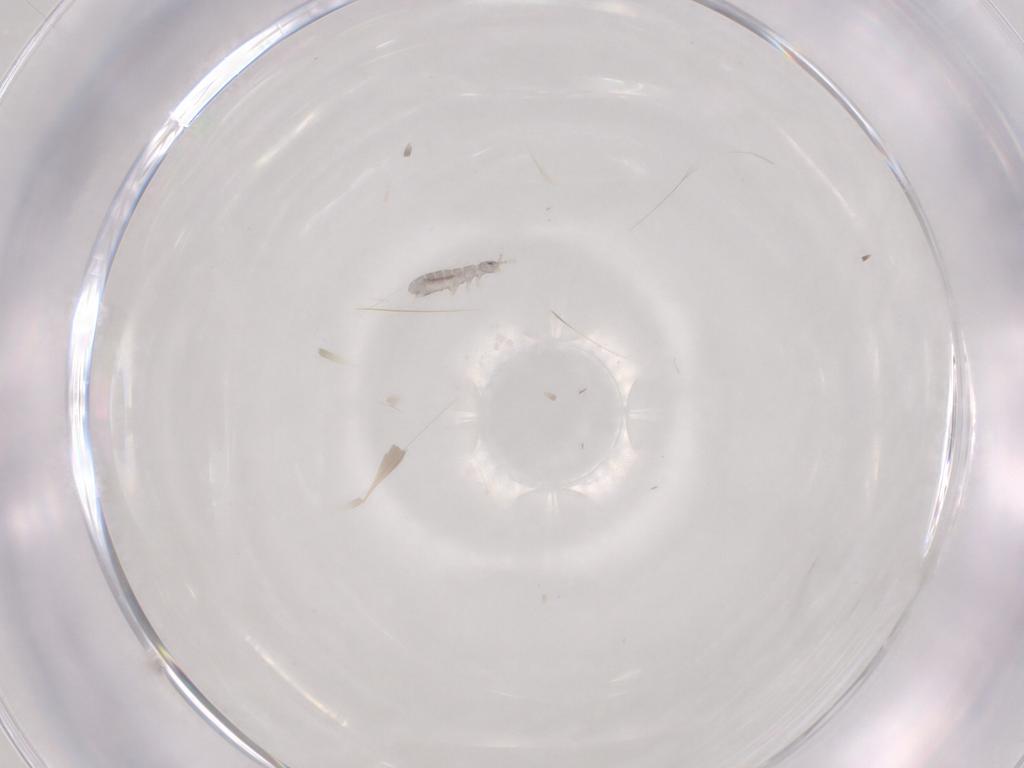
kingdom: Animalia
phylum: Arthropoda
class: Collembola
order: Entomobryomorpha
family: Isotomidae
